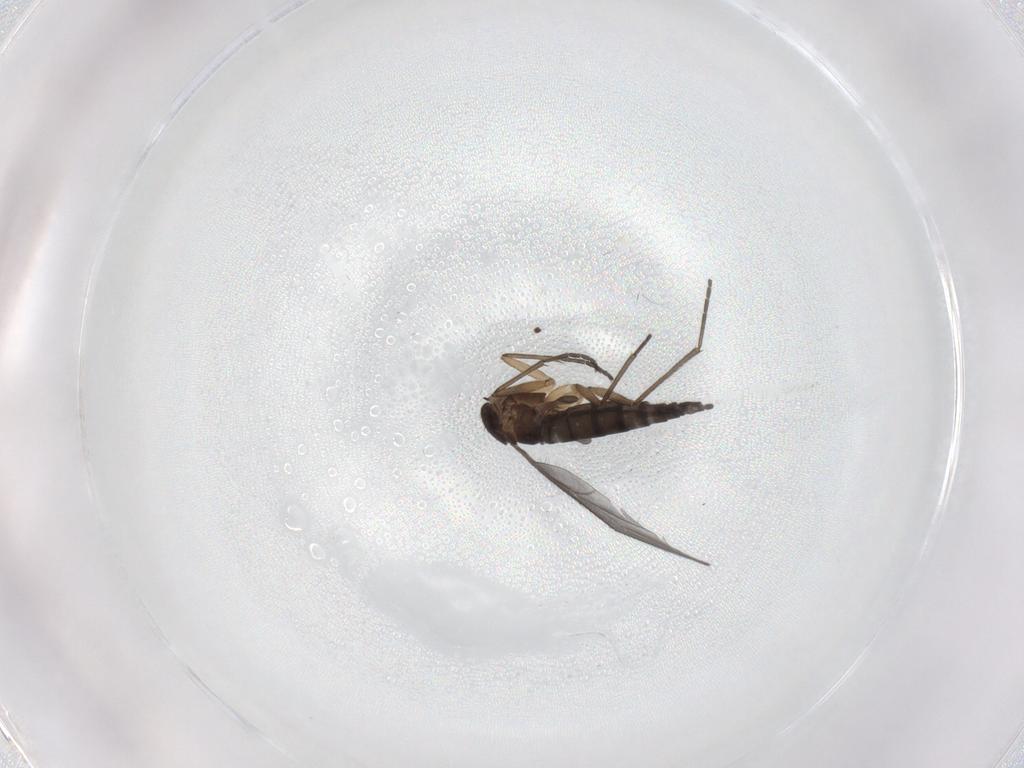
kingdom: Animalia
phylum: Arthropoda
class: Insecta
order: Diptera
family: Sciaridae
